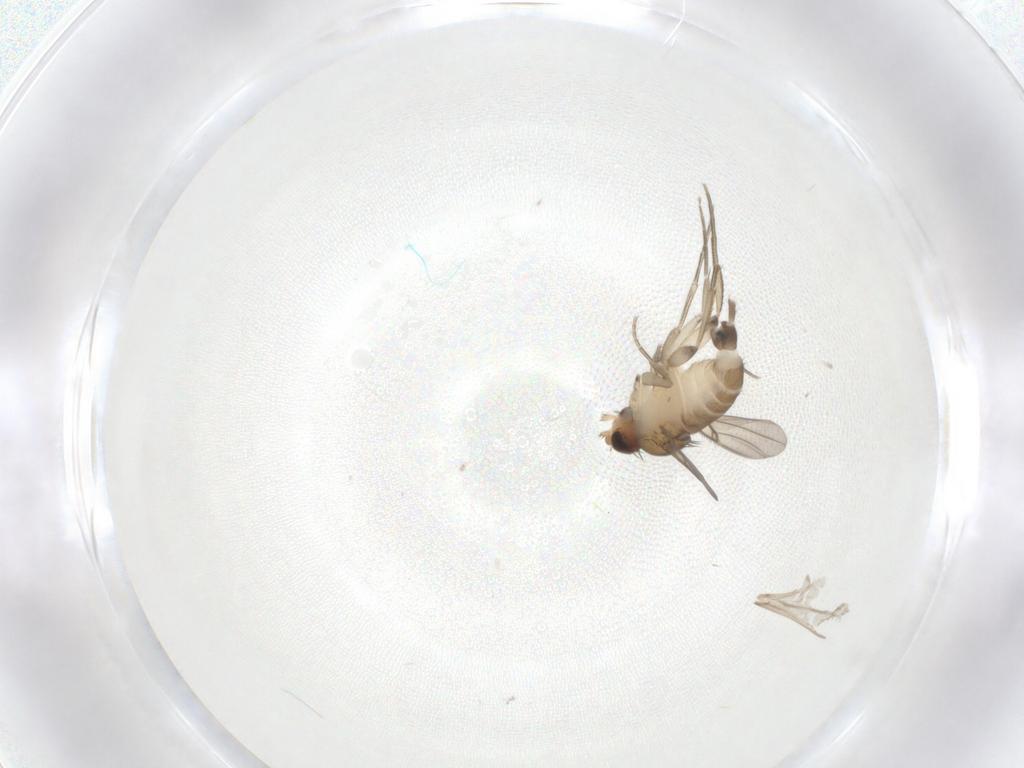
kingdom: Animalia
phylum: Arthropoda
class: Insecta
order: Diptera
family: Phoridae
